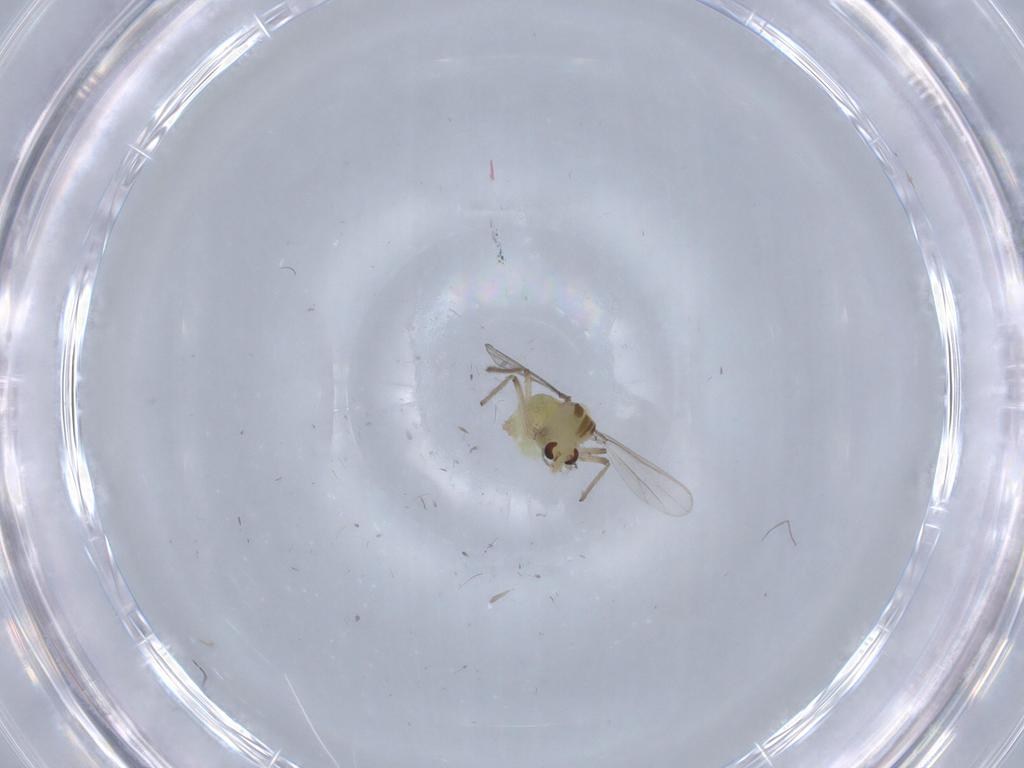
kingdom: Animalia
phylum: Arthropoda
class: Insecta
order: Diptera
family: Chironomidae
